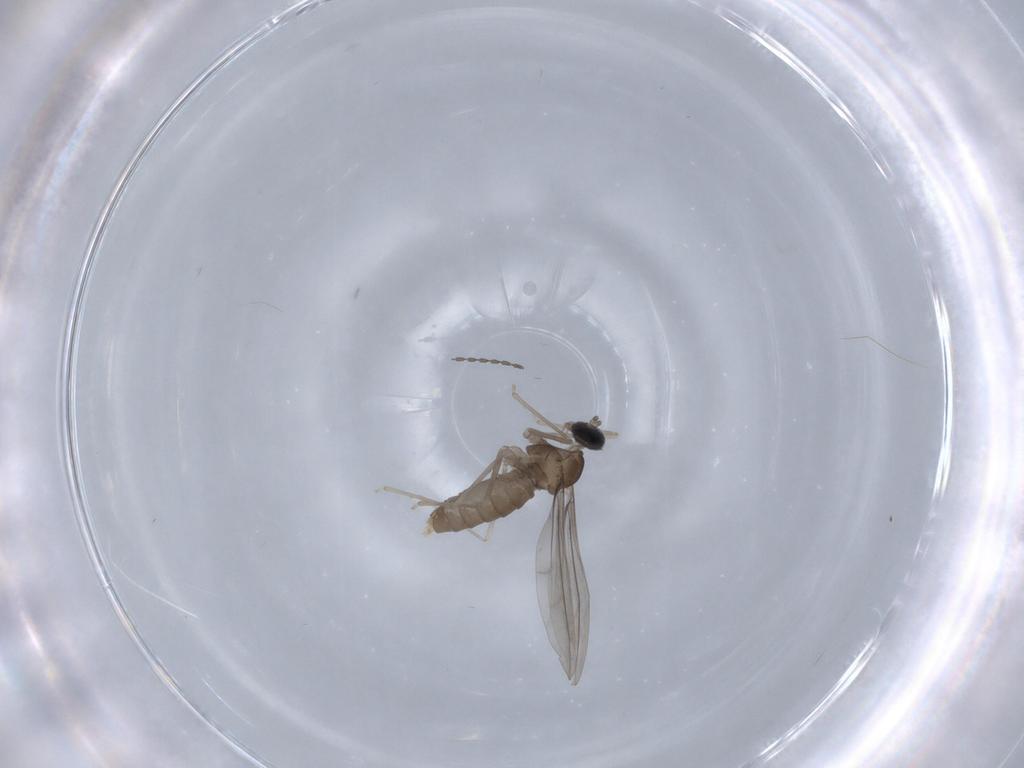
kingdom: Animalia
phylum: Arthropoda
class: Insecta
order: Diptera
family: Cecidomyiidae
